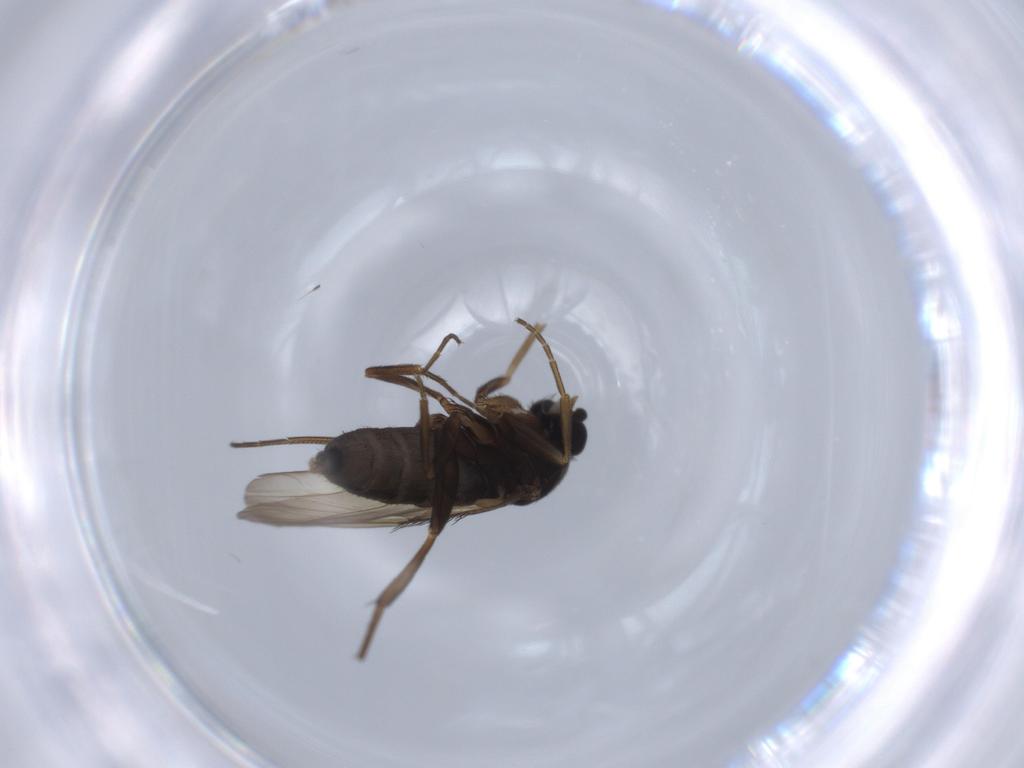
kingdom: Animalia
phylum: Arthropoda
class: Insecta
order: Diptera
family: Phoridae
